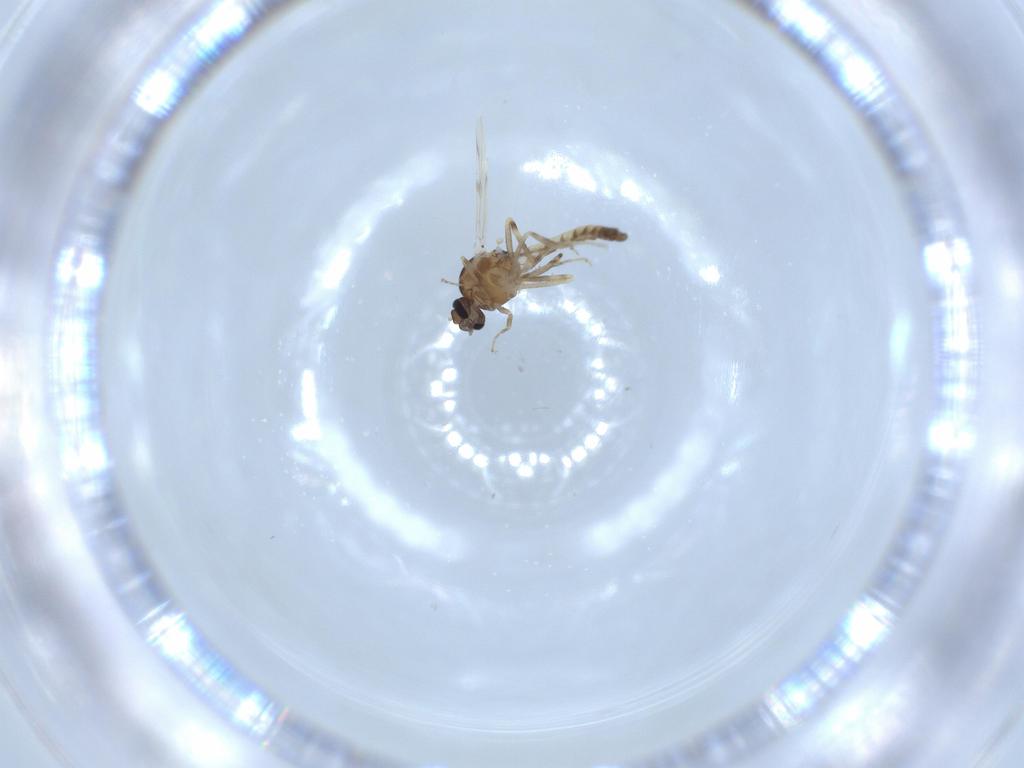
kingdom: Animalia
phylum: Arthropoda
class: Insecta
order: Diptera
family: Ceratopogonidae
